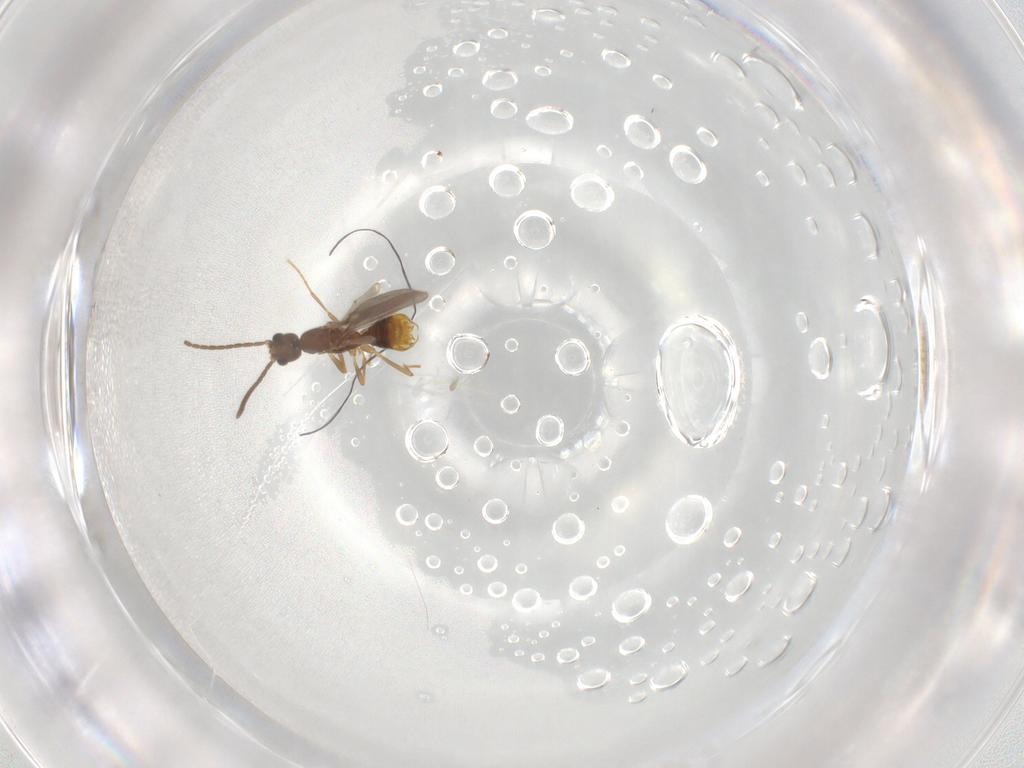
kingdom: Animalia
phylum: Arthropoda
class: Insecta
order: Hymenoptera
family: Formicidae
